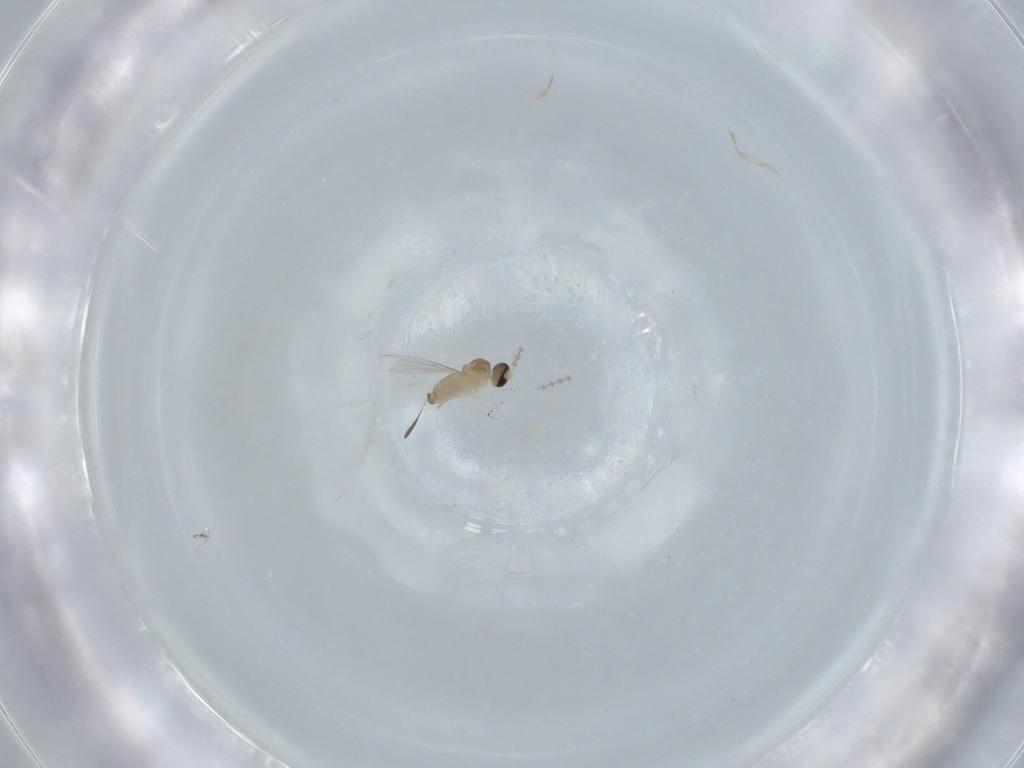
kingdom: Animalia
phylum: Arthropoda
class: Insecta
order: Diptera
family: Cecidomyiidae
